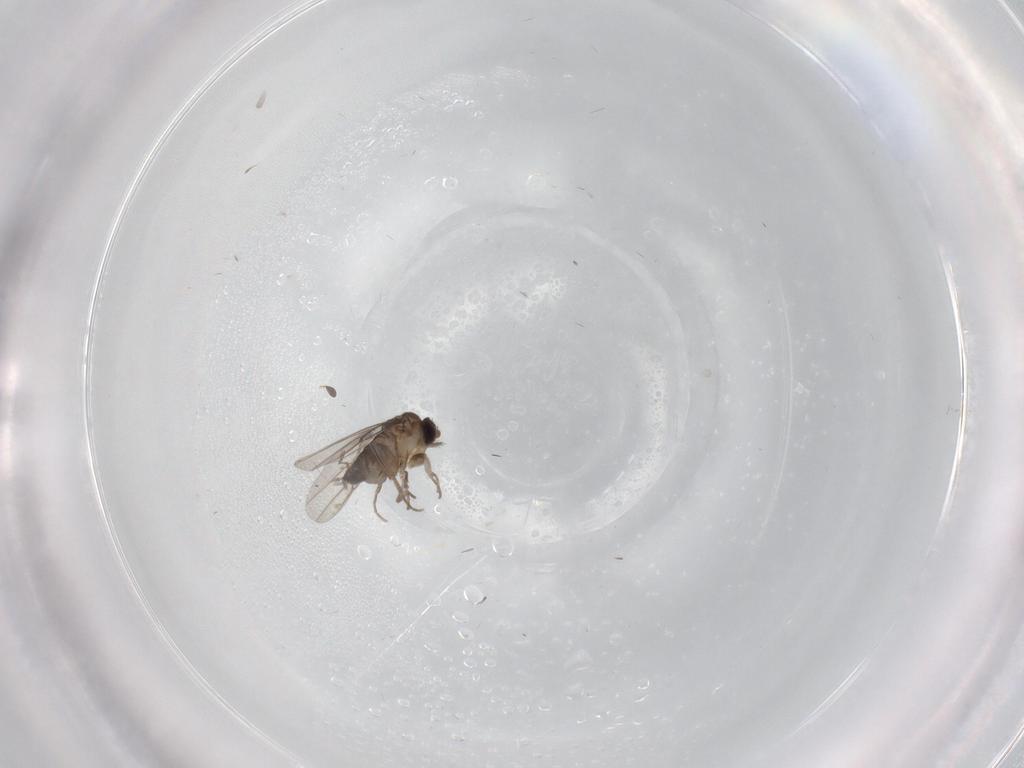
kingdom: Animalia
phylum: Arthropoda
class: Insecta
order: Diptera
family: Phoridae
